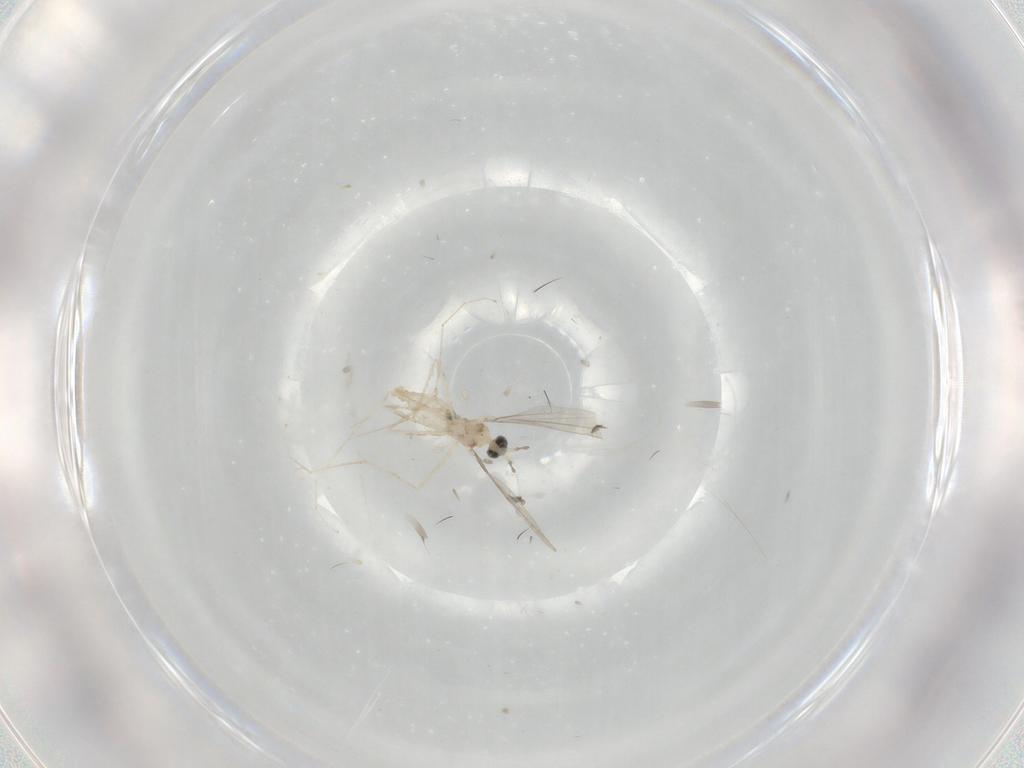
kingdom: Animalia
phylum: Arthropoda
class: Insecta
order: Diptera
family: Cecidomyiidae
